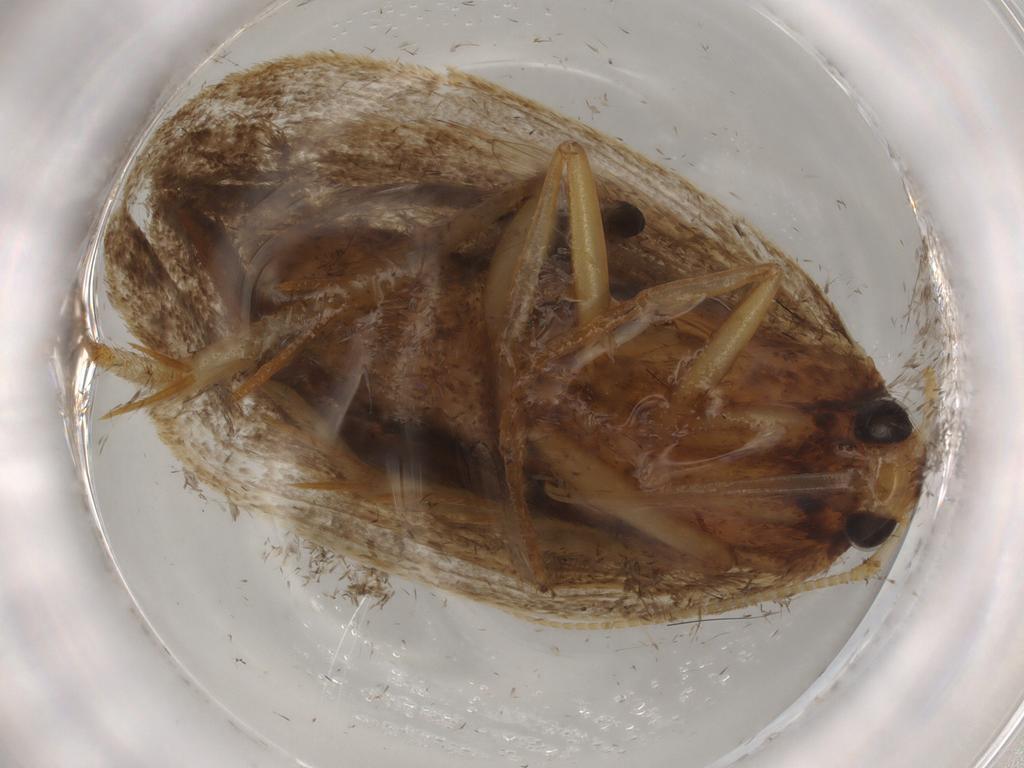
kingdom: Animalia
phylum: Arthropoda
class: Insecta
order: Lepidoptera
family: Lecithoceridae
